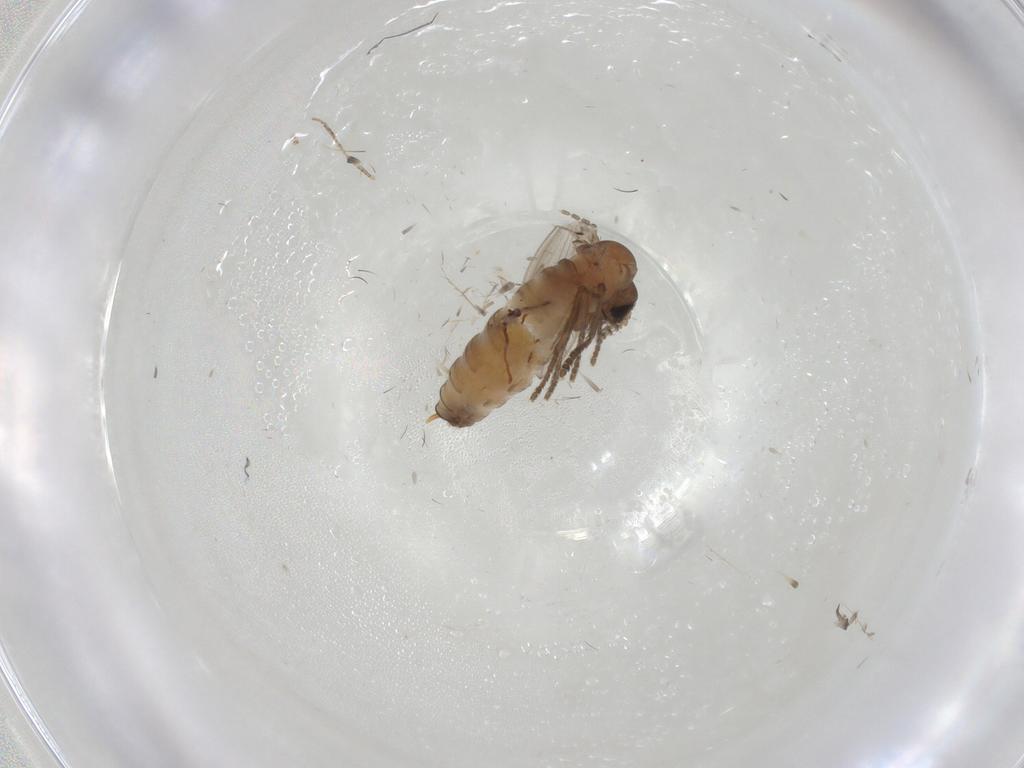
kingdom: Animalia
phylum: Arthropoda
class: Insecta
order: Diptera
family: Psychodidae
